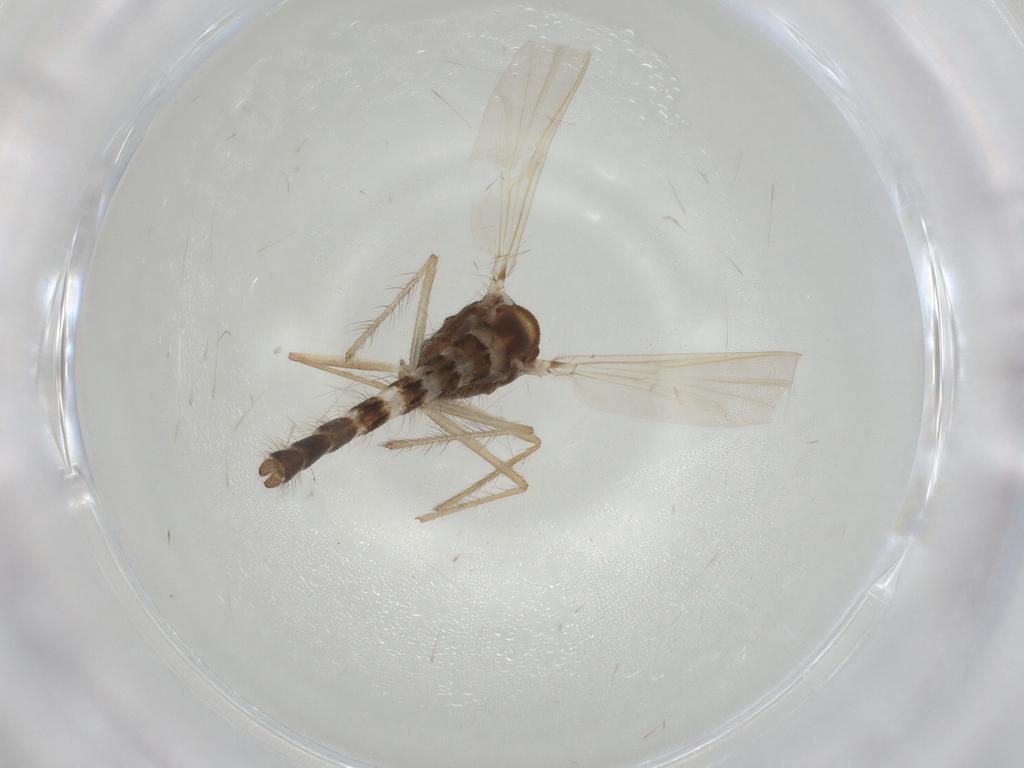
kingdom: Animalia
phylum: Arthropoda
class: Insecta
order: Diptera
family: Chironomidae
